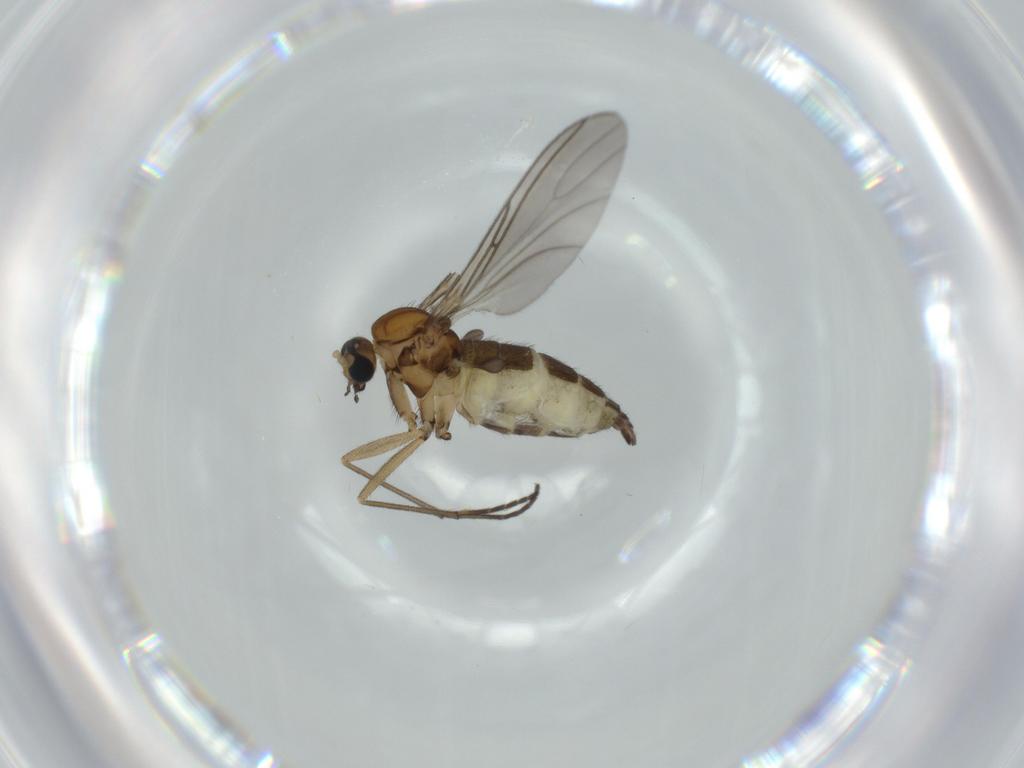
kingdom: Animalia
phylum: Arthropoda
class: Insecta
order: Diptera
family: Sciaridae
